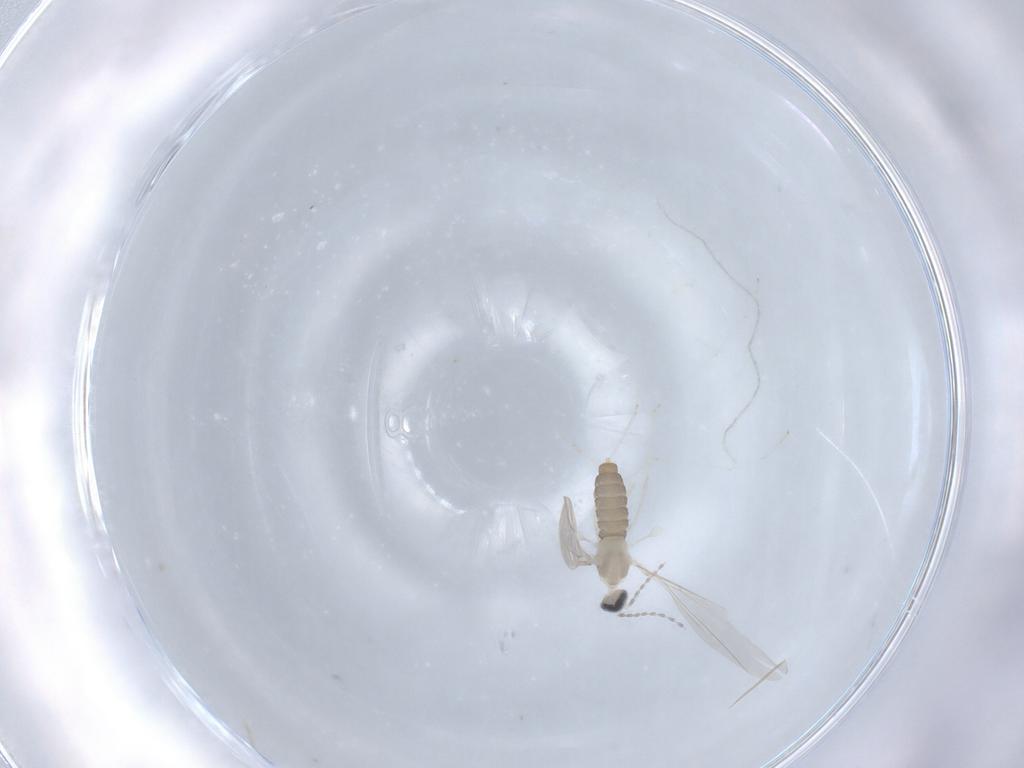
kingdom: Animalia
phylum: Arthropoda
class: Insecta
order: Diptera
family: Cecidomyiidae
